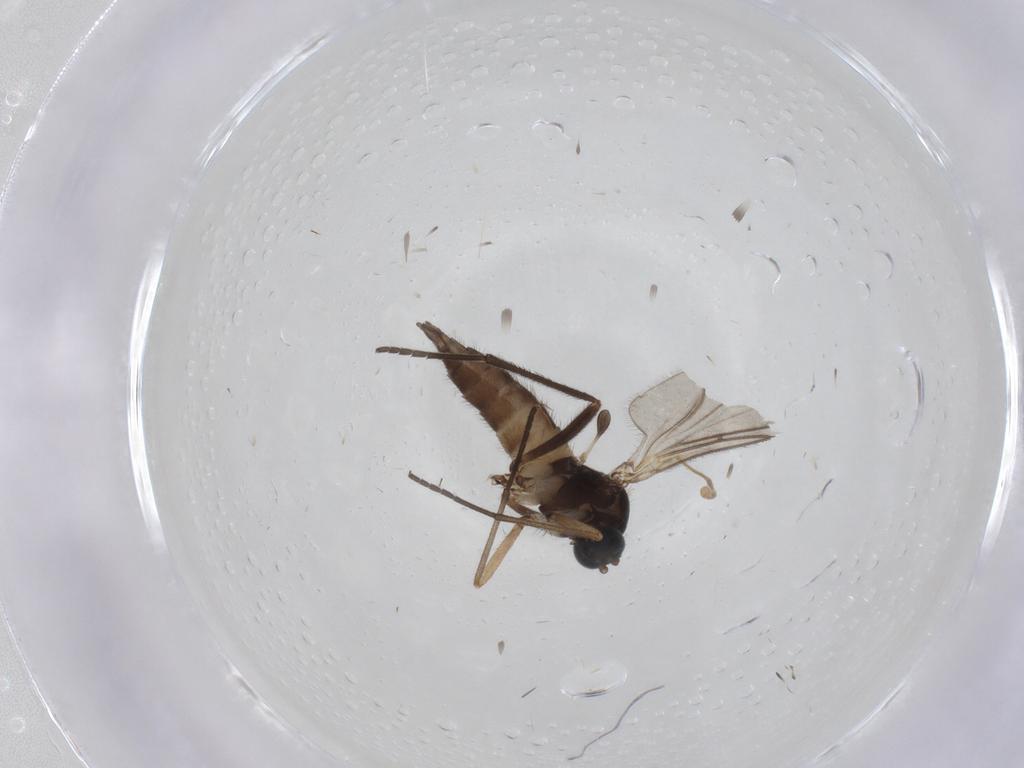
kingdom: Animalia
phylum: Arthropoda
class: Insecta
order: Diptera
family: Sciaridae
